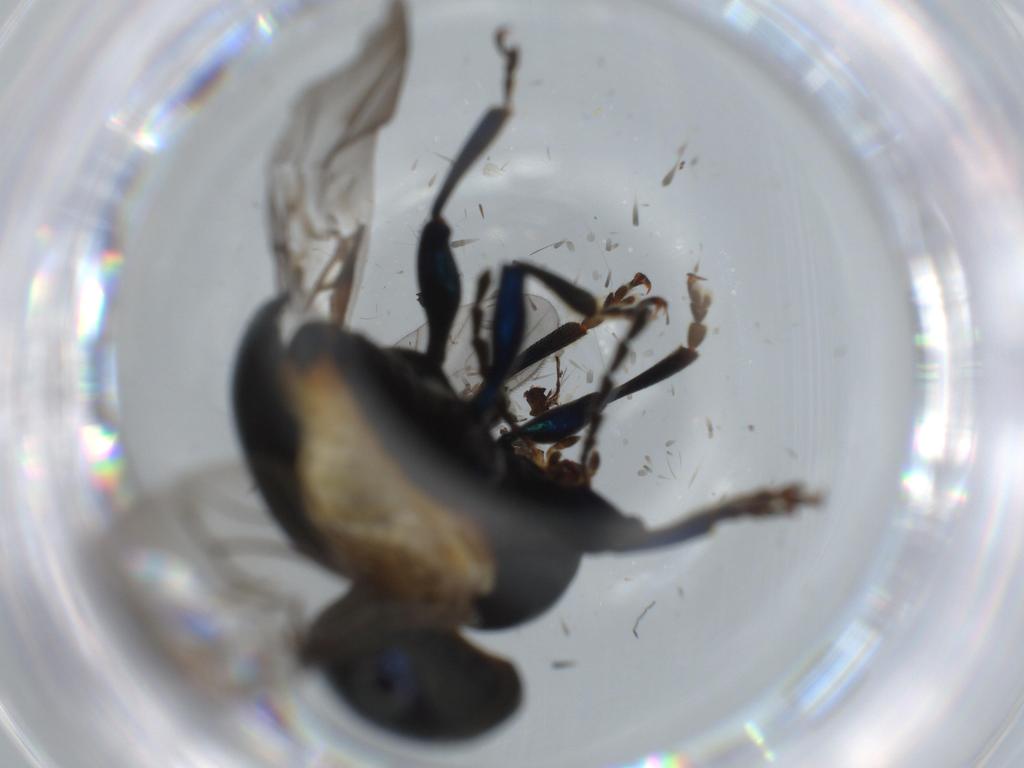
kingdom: Animalia
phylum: Arthropoda
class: Insecta
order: Coleoptera
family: Chrysomelidae
